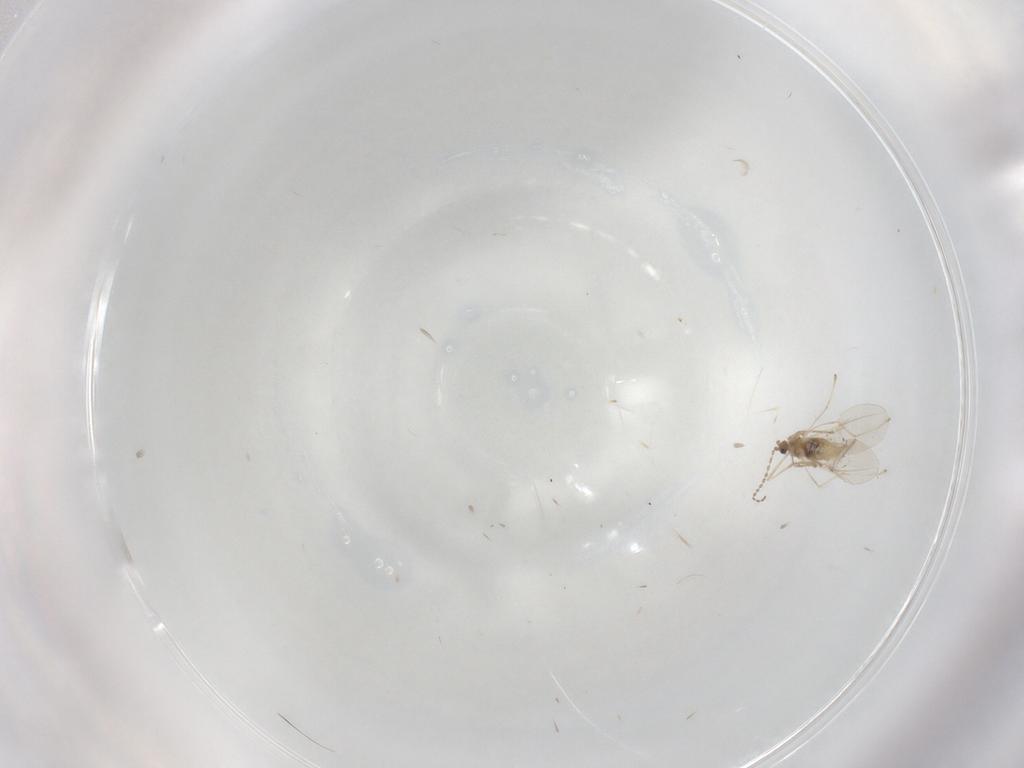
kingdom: Animalia
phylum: Arthropoda
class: Insecta
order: Diptera
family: Cecidomyiidae
